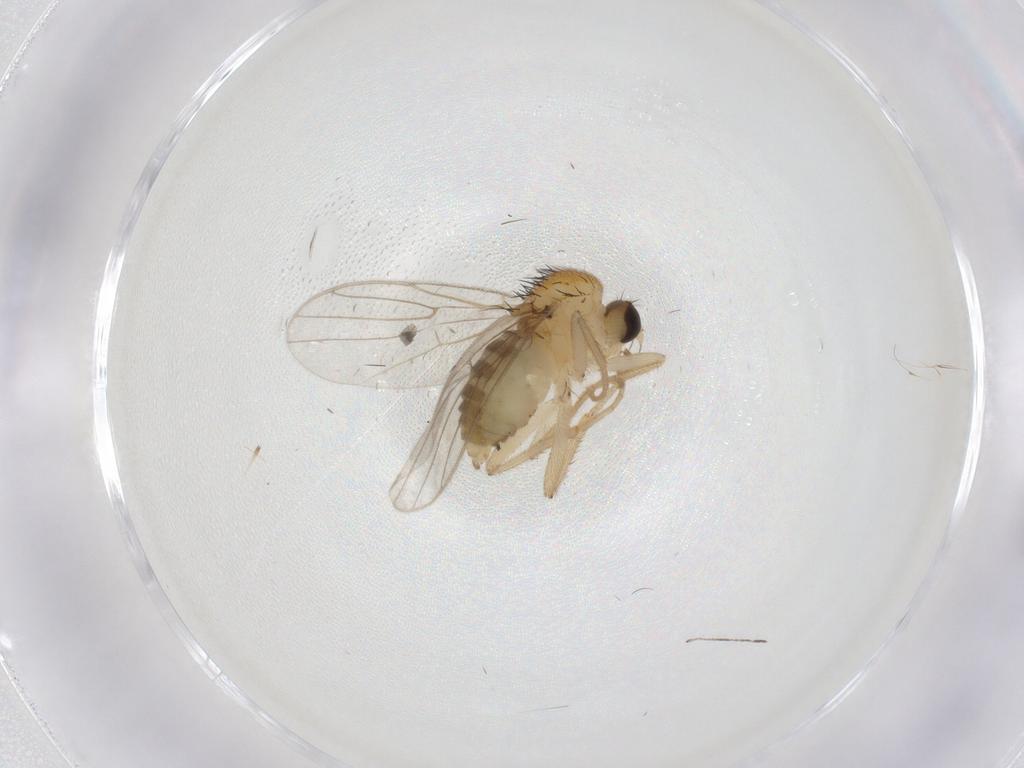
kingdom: Animalia
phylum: Arthropoda
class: Insecta
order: Diptera
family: Hybotidae
